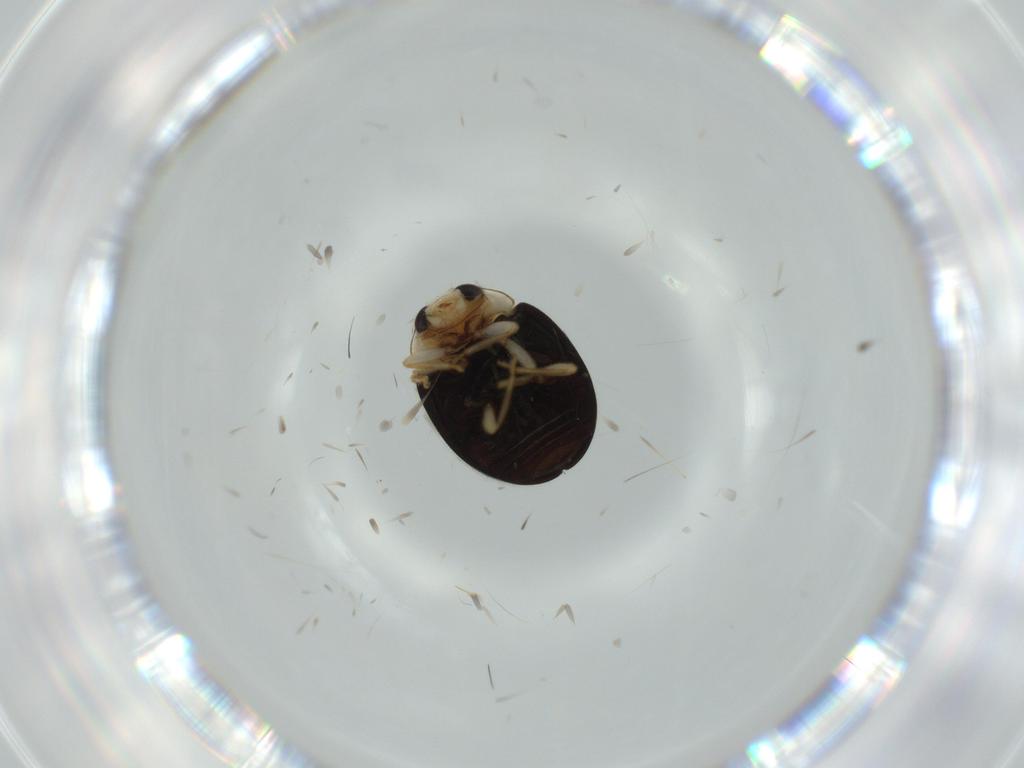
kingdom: Animalia
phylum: Arthropoda
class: Insecta
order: Coleoptera
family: Coccinellidae
